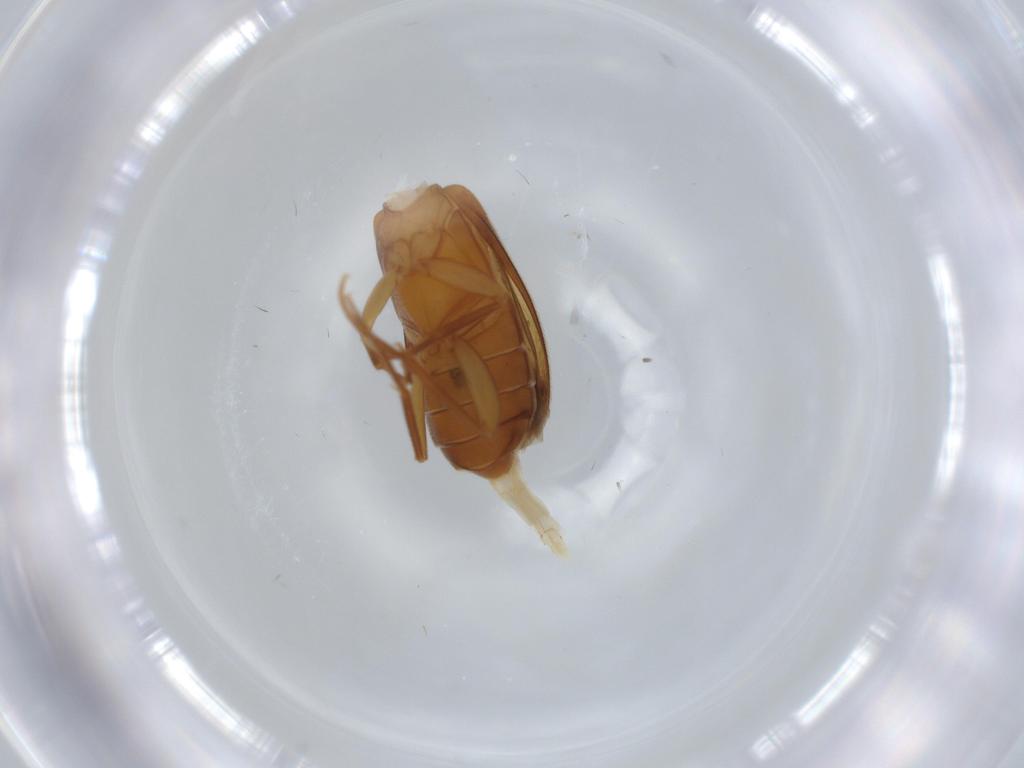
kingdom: Animalia
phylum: Arthropoda
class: Insecta
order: Coleoptera
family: Scraptiidae
